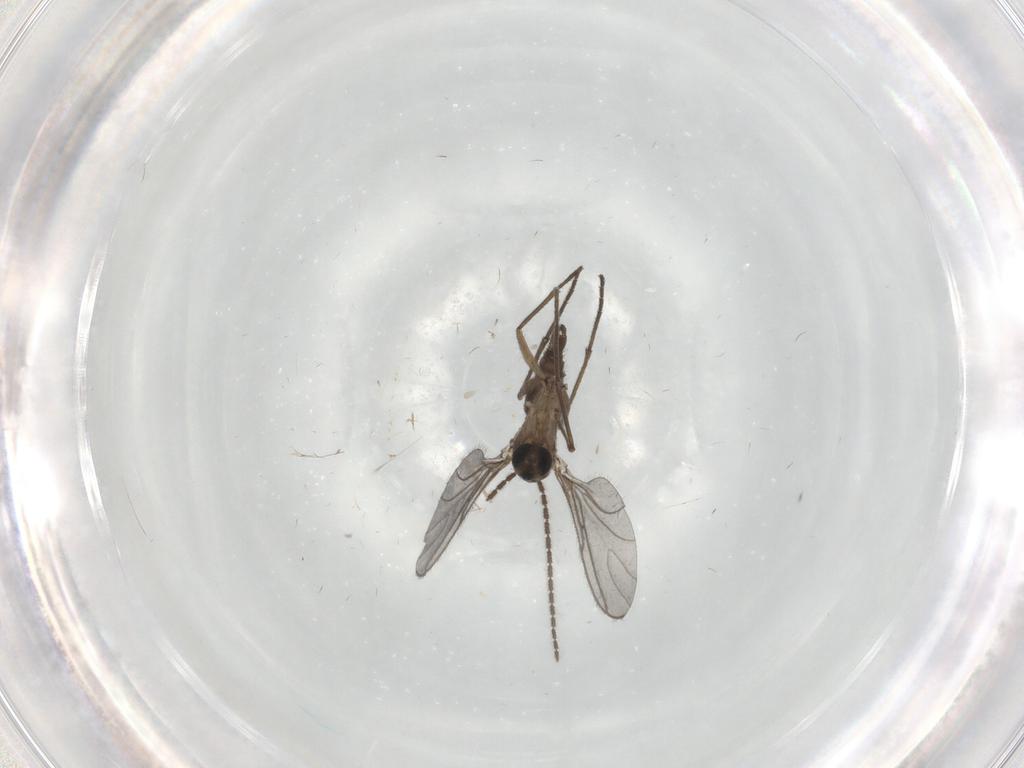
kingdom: Animalia
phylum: Arthropoda
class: Insecta
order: Diptera
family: Cecidomyiidae
